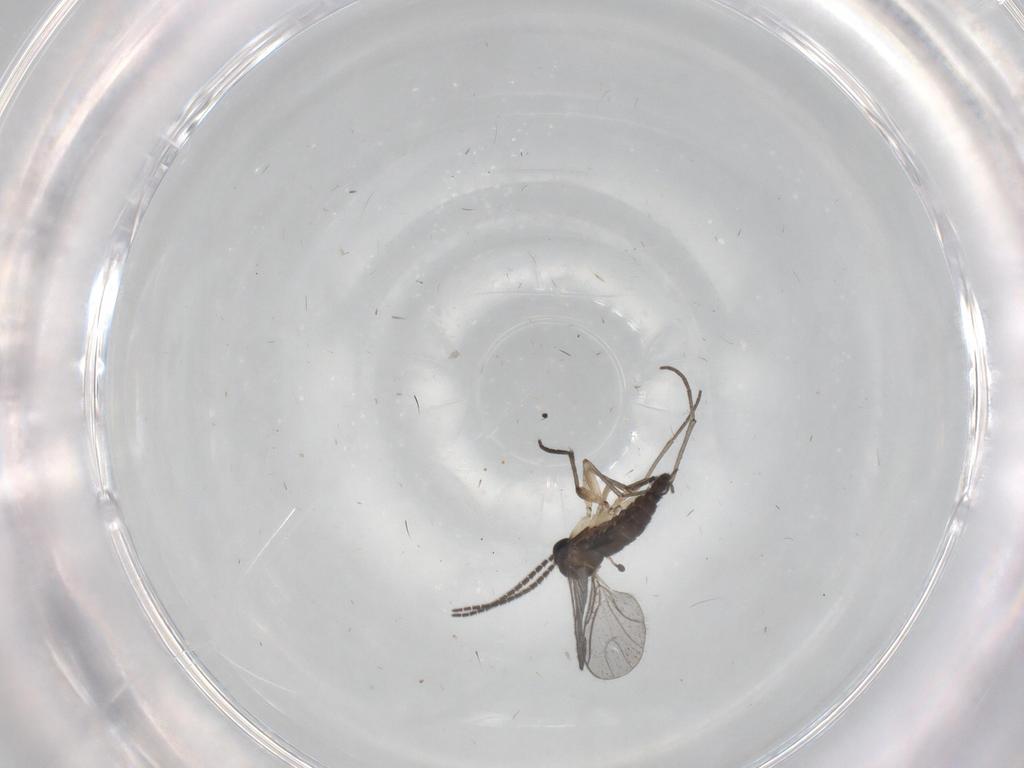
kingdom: Animalia
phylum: Arthropoda
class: Insecta
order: Diptera
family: Sciaridae
